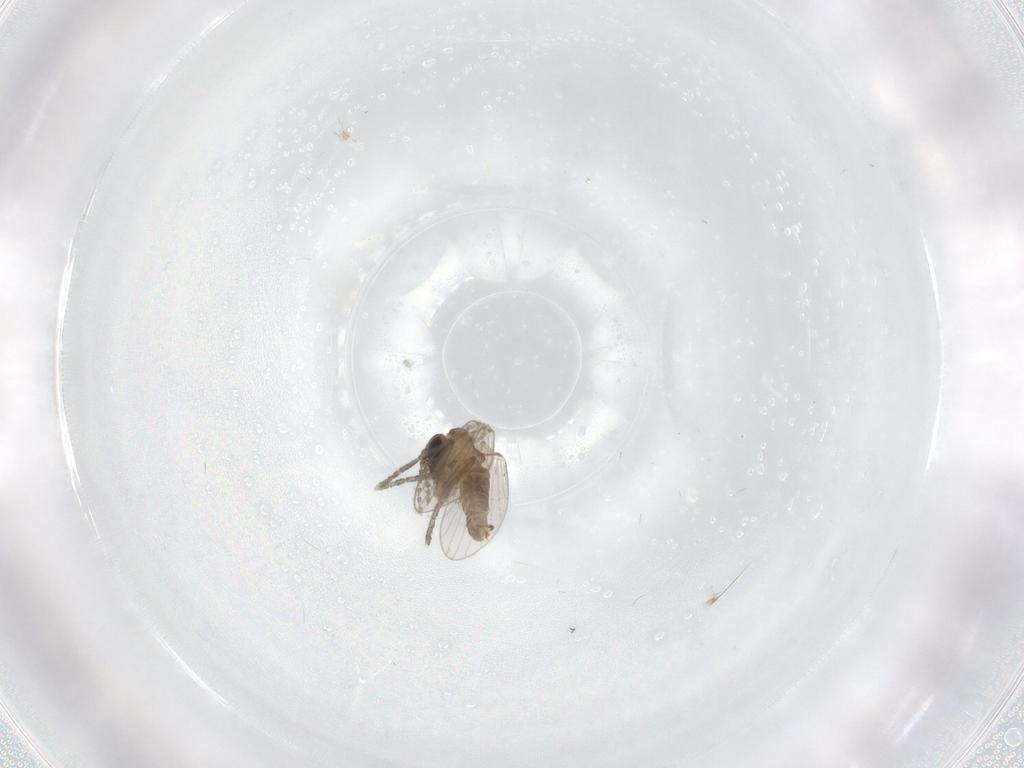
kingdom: Animalia
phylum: Arthropoda
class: Insecta
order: Diptera
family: Psychodidae
